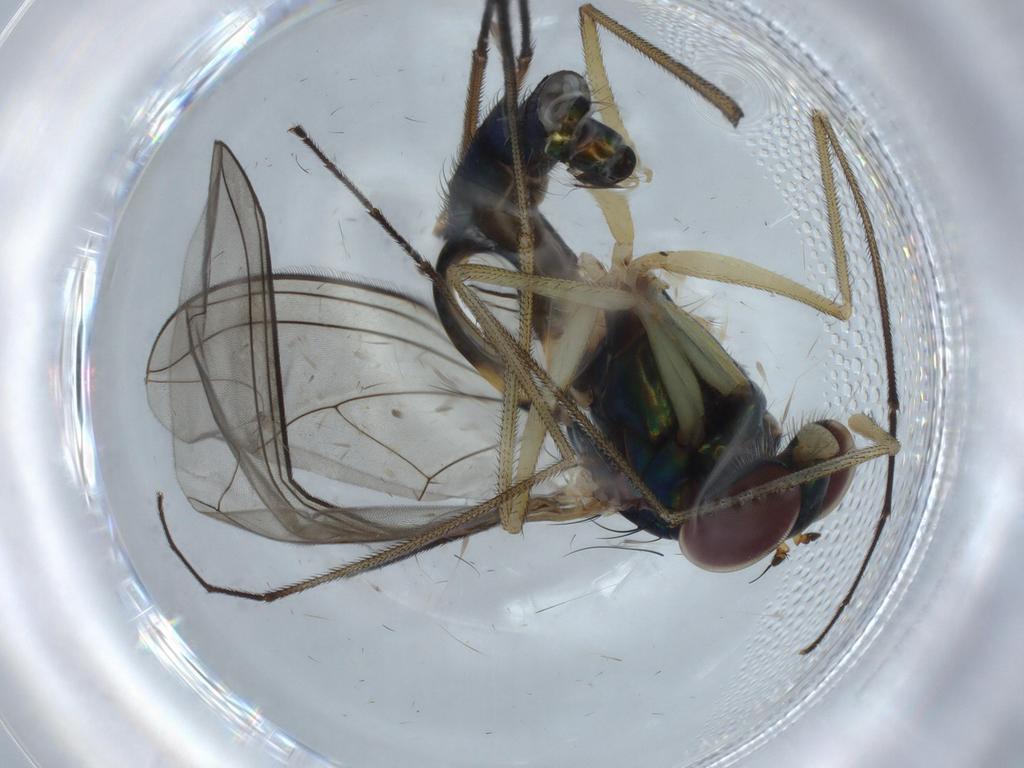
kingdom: Animalia
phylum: Arthropoda
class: Insecta
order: Diptera
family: Dolichopodidae
